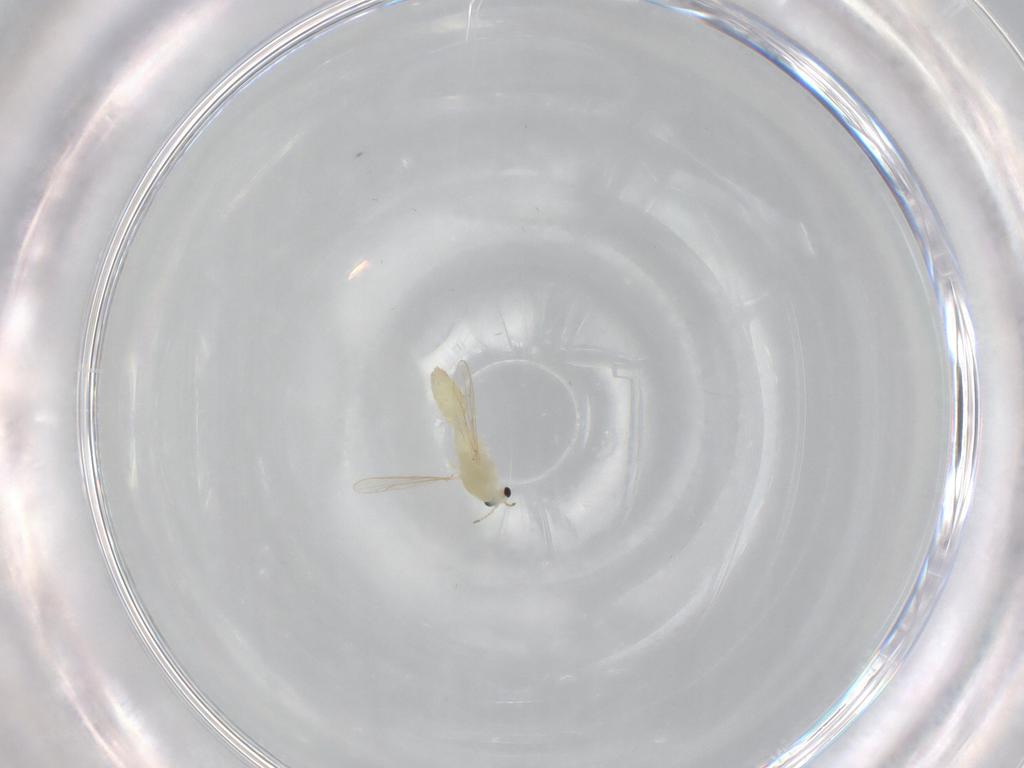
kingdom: Animalia
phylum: Arthropoda
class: Insecta
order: Diptera
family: Chironomidae
